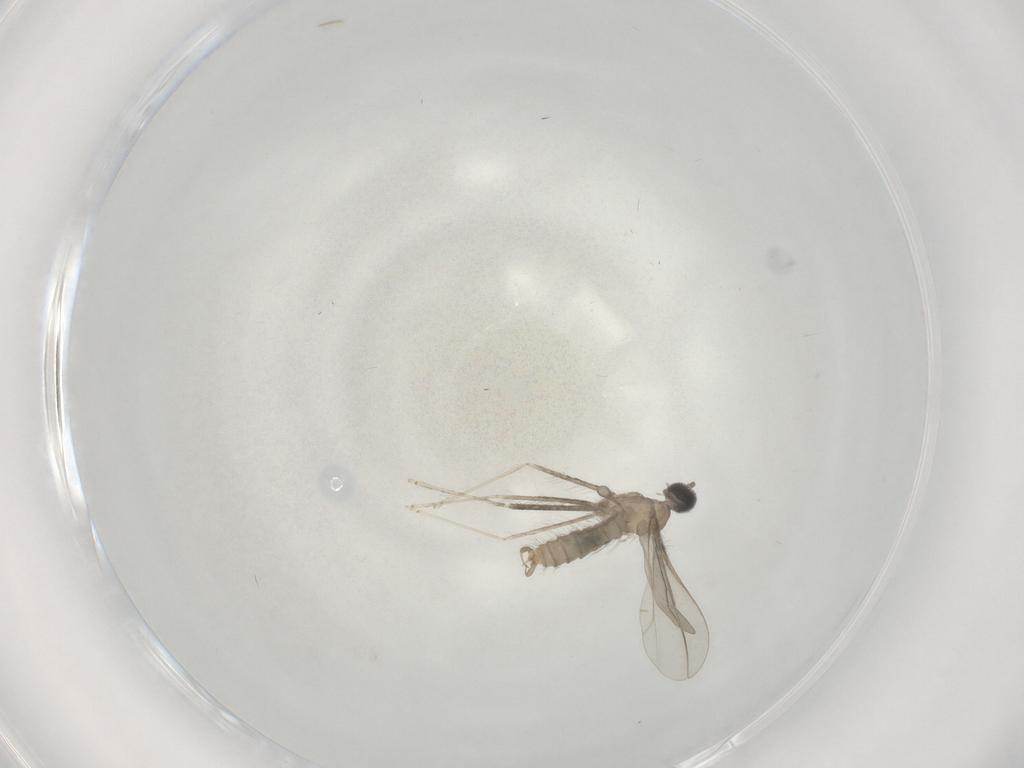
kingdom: Animalia
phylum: Arthropoda
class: Insecta
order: Diptera
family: Cecidomyiidae
